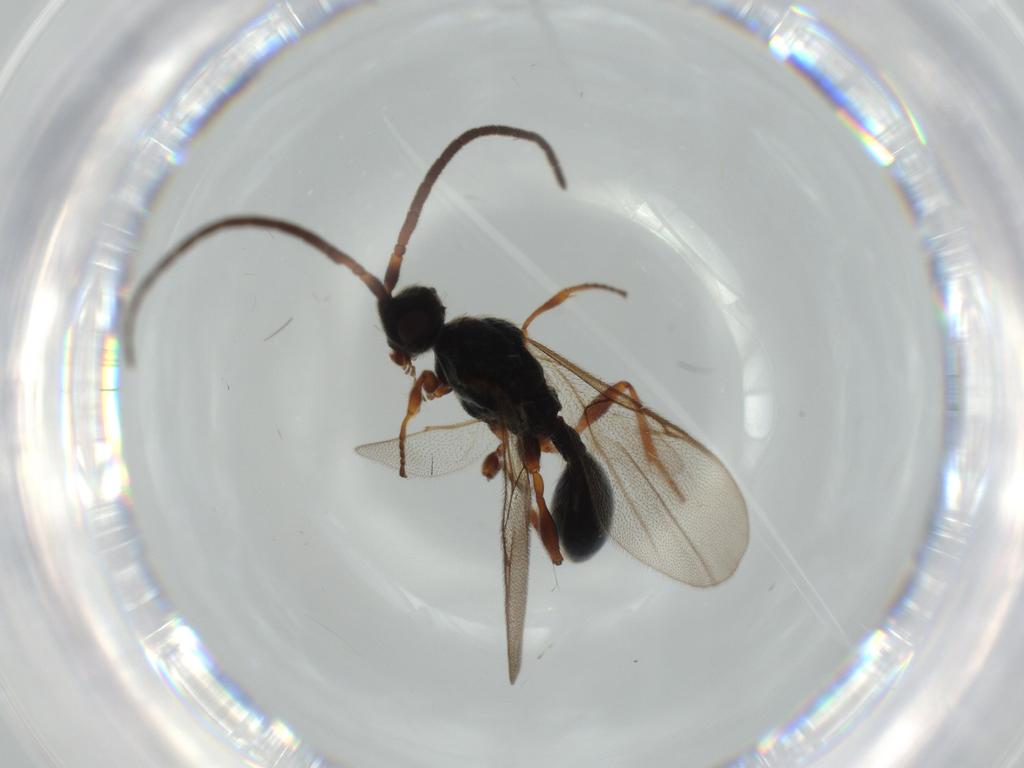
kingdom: Animalia
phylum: Arthropoda
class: Insecta
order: Hymenoptera
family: Diapriidae
